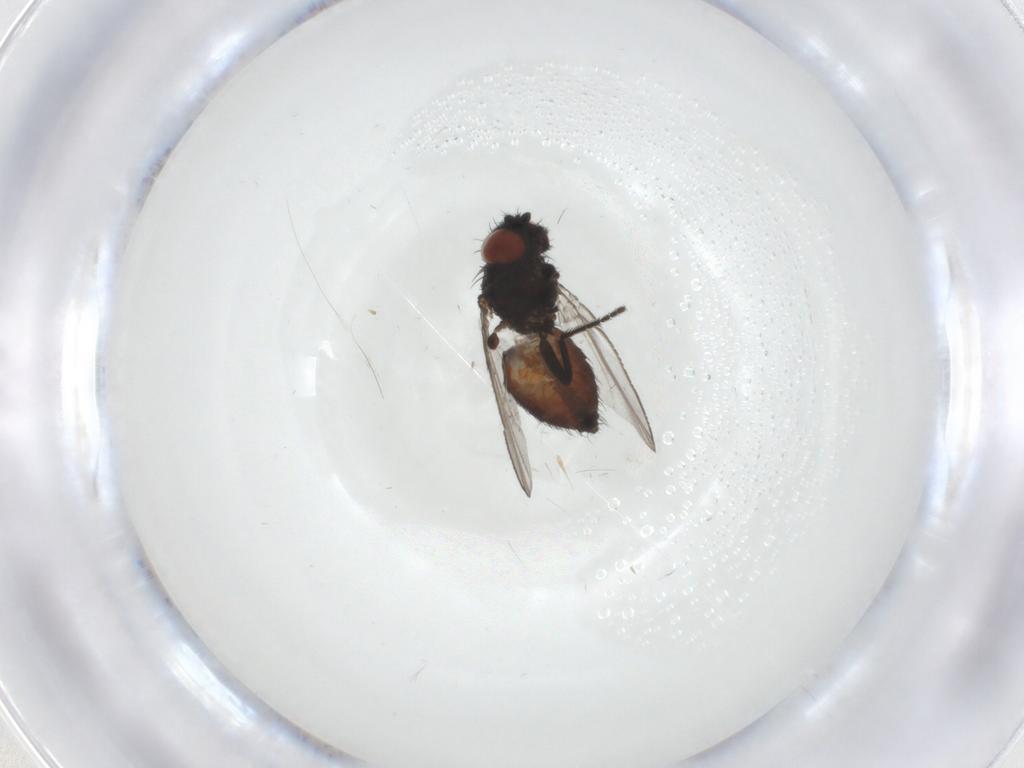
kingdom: Animalia
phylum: Arthropoda
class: Insecta
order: Diptera
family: Milichiidae
